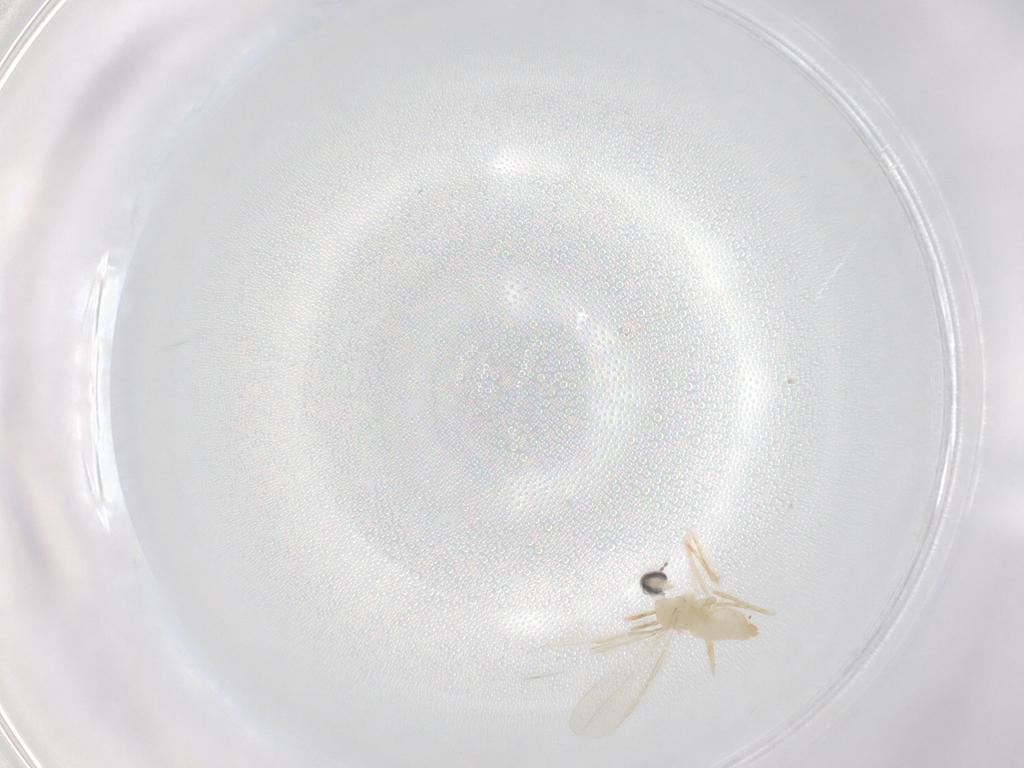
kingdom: Animalia
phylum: Arthropoda
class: Insecta
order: Diptera
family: Cecidomyiidae
